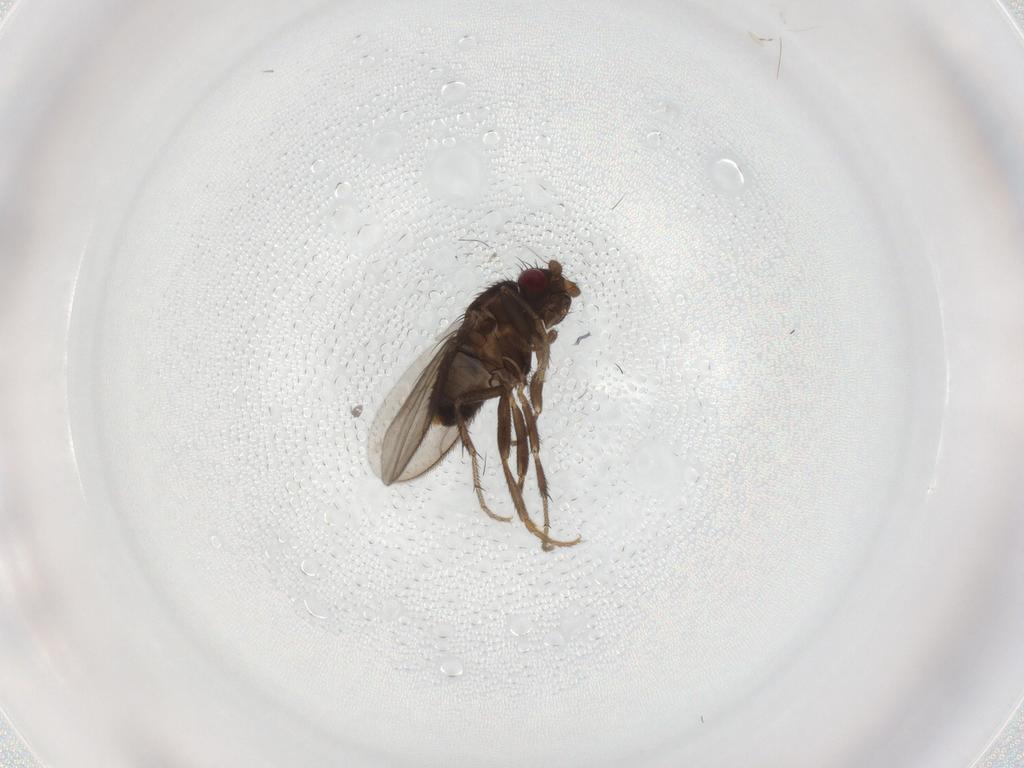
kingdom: Animalia
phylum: Arthropoda
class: Insecta
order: Diptera
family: Sphaeroceridae
